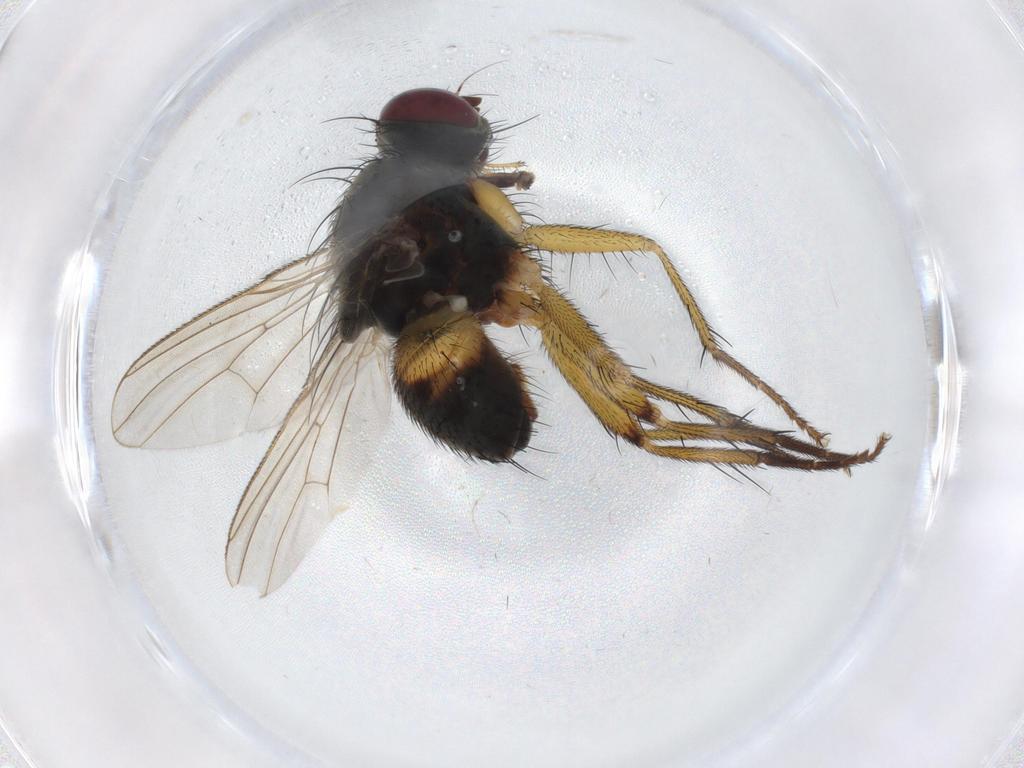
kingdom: Animalia
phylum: Arthropoda
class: Insecta
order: Diptera
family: Muscidae
